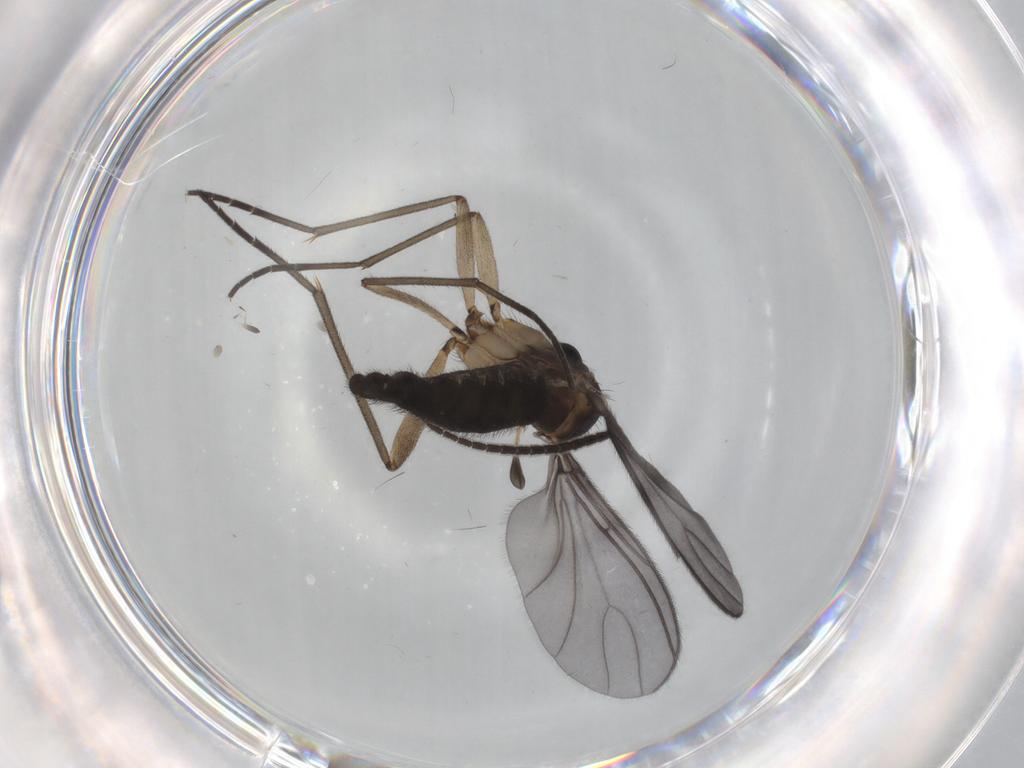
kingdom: Animalia
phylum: Arthropoda
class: Insecta
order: Diptera
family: Sciaridae
